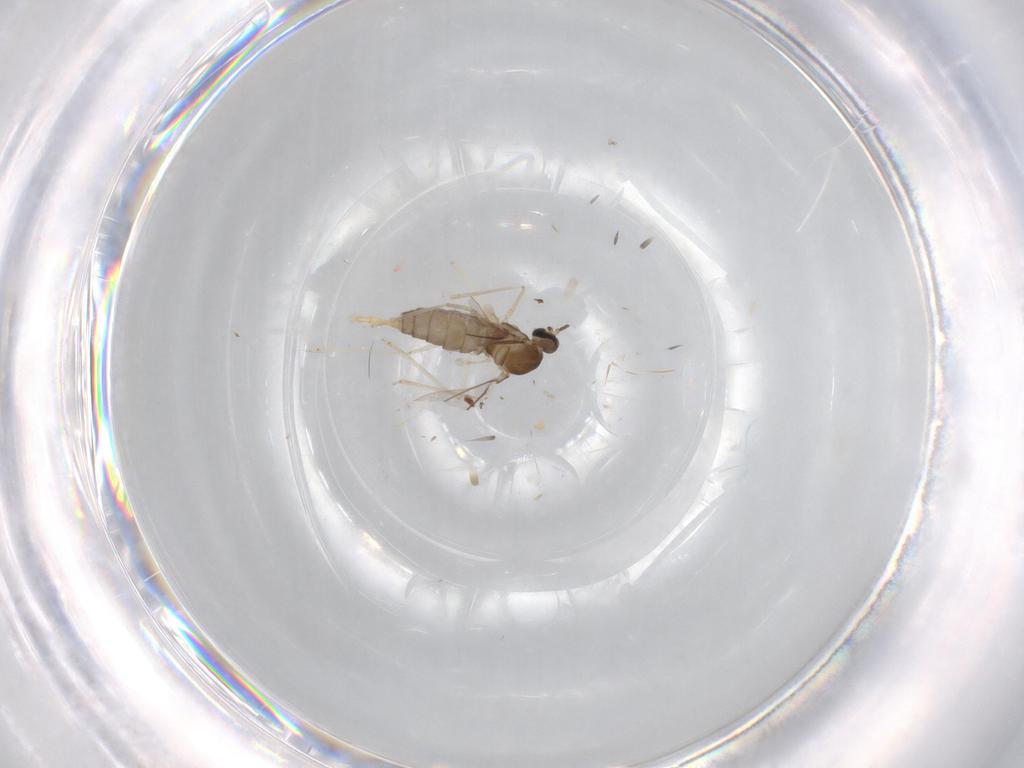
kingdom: Animalia
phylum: Arthropoda
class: Insecta
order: Diptera
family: Cecidomyiidae
